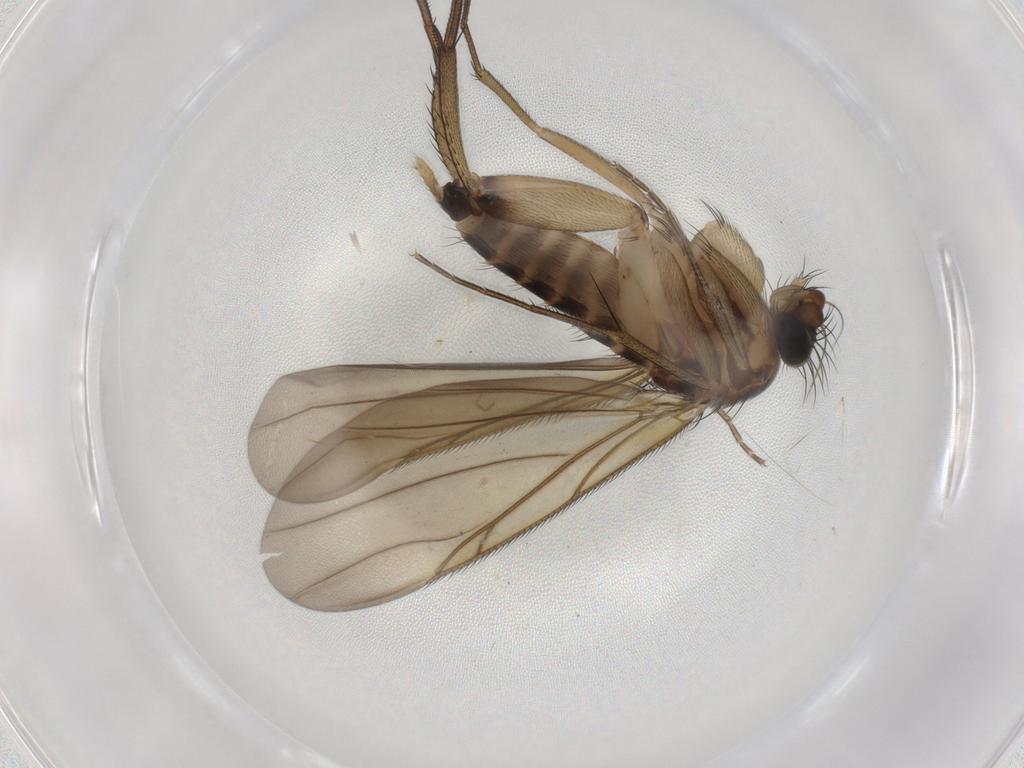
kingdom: Animalia
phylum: Arthropoda
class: Insecta
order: Diptera
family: Phoridae
